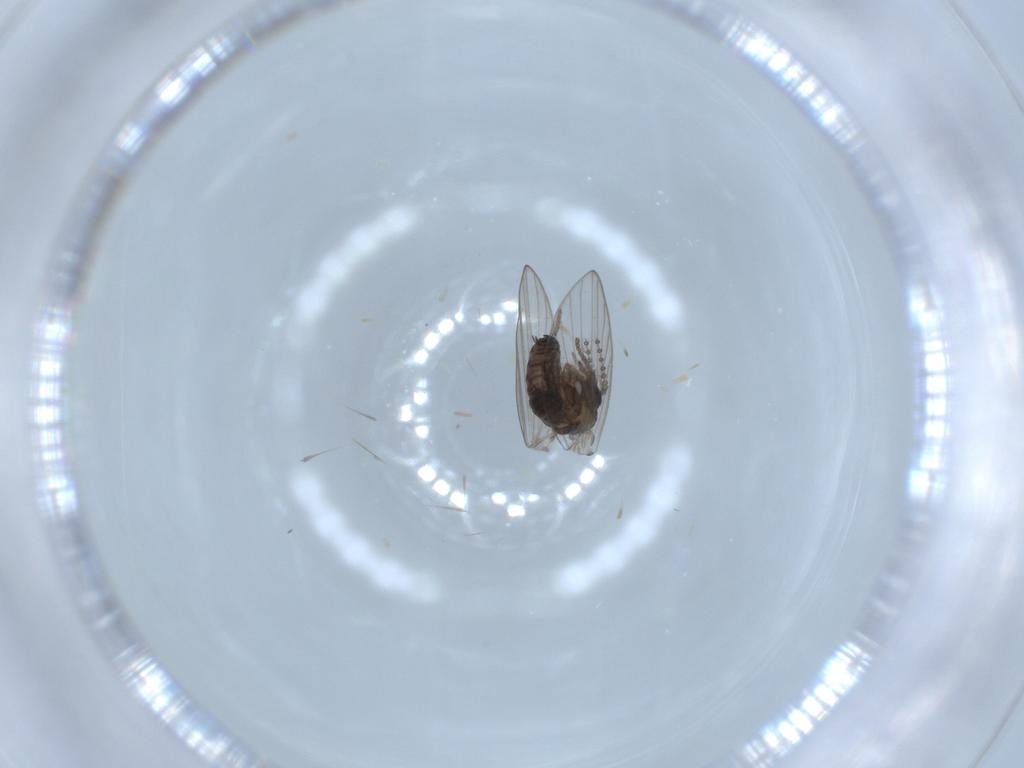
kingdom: Animalia
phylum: Arthropoda
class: Insecta
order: Diptera
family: Psychodidae
